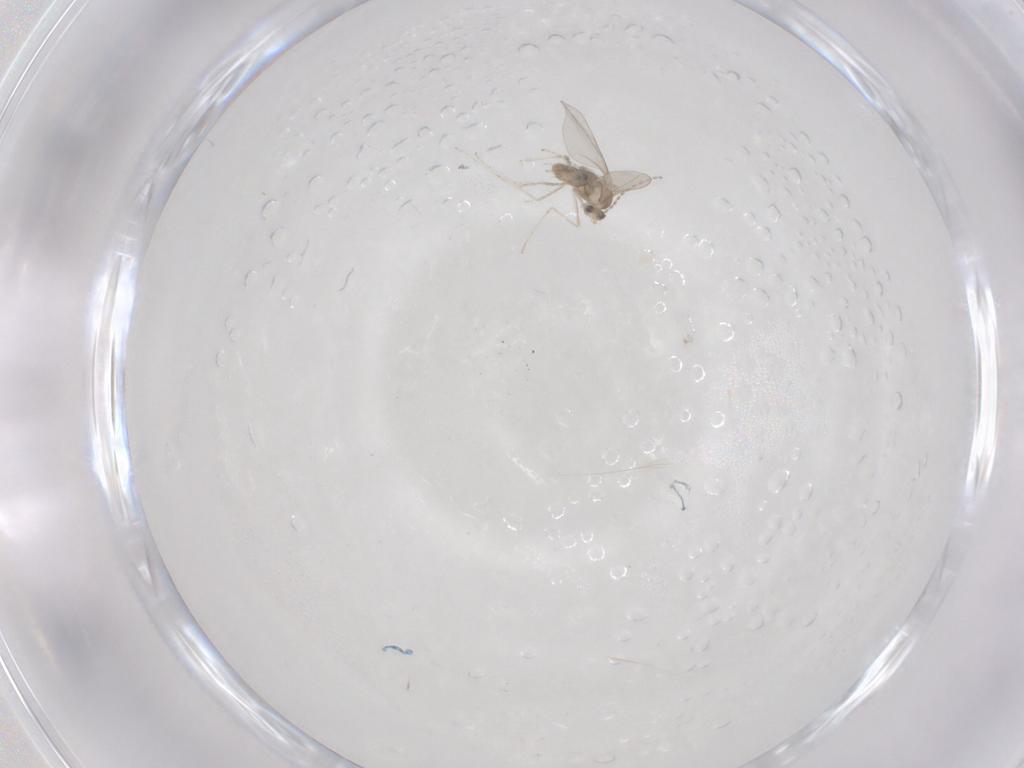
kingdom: Animalia
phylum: Arthropoda
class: Insecta
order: Diptera
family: Cecidomyiidae
